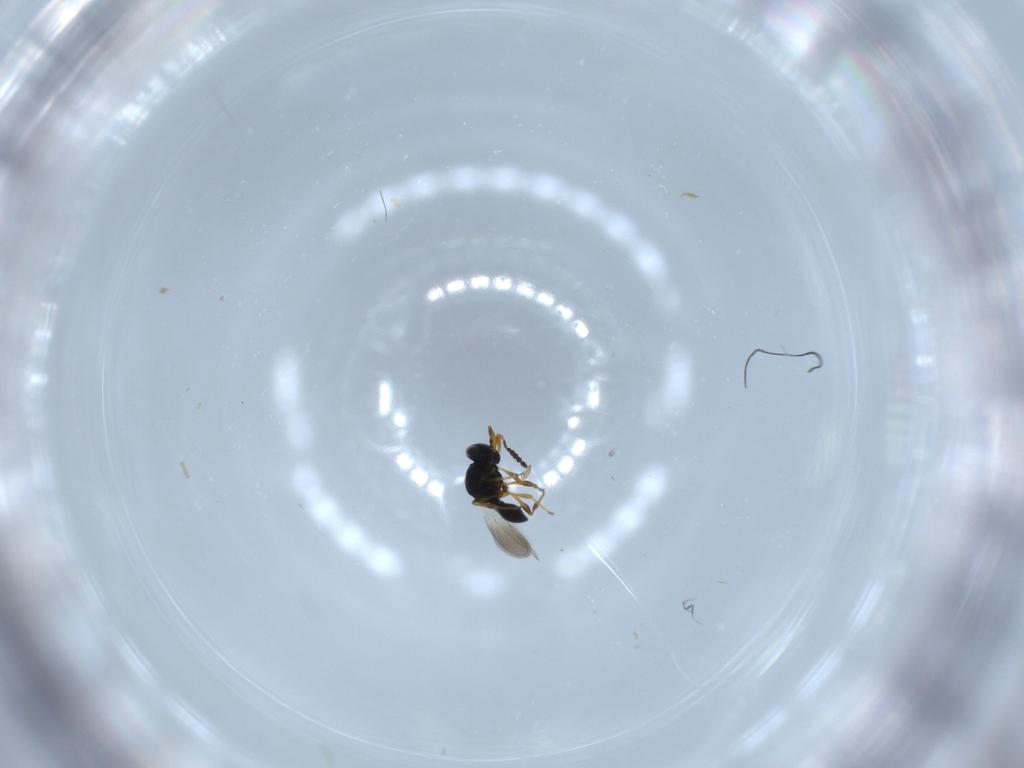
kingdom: Animalia
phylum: Arthropoda
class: Insecta
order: Hymenoptera
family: Platygastridae
